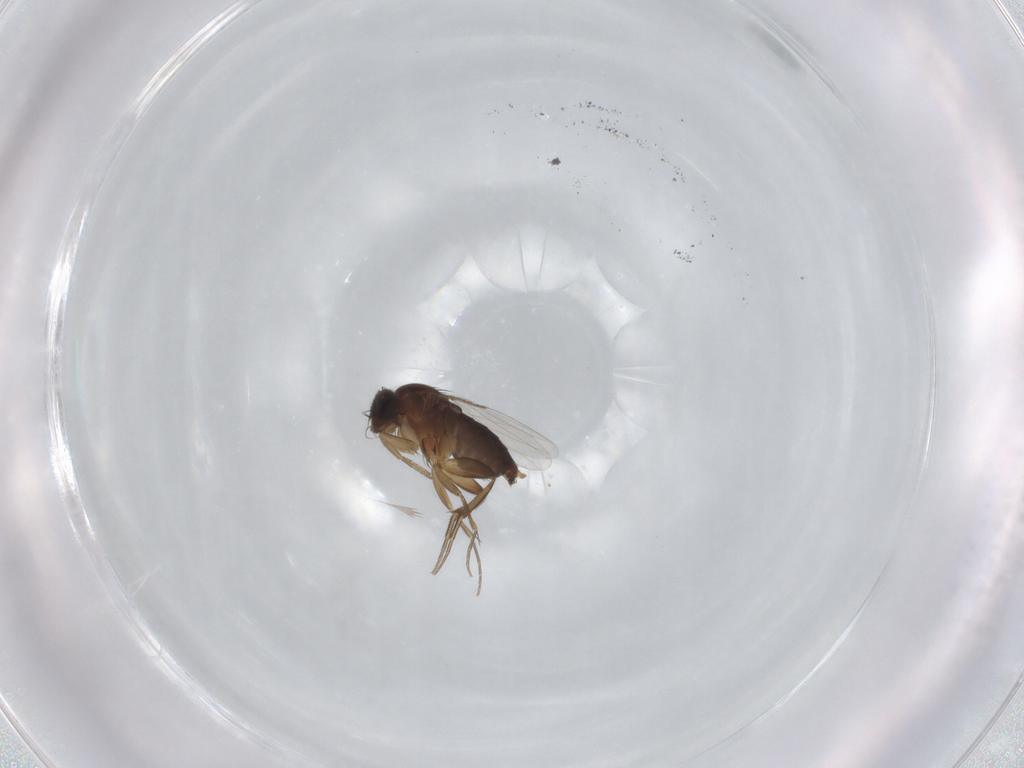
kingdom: Animalia
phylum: Arthropoda
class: Insecta
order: Diptera
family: Phoridae
